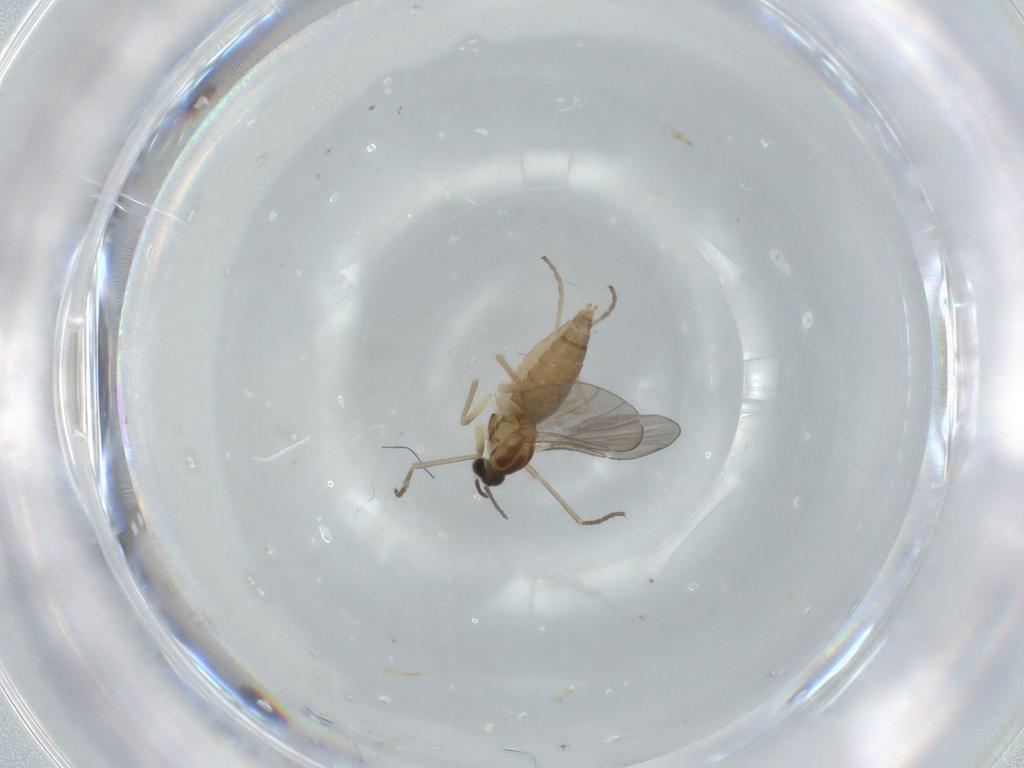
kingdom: Animalia
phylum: Arthropoda
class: Insecta
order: Diptera
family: Cecidomyiidae
